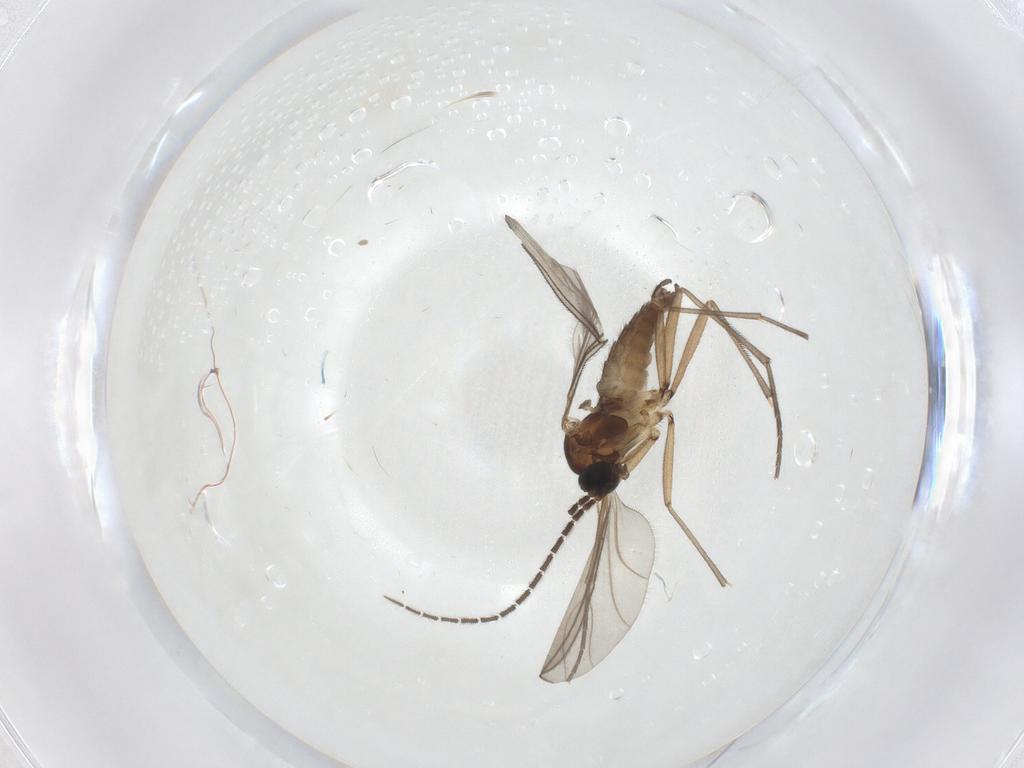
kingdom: Animalia
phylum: Arthropoda
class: Insecta
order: Diptera
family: Sciaridae
